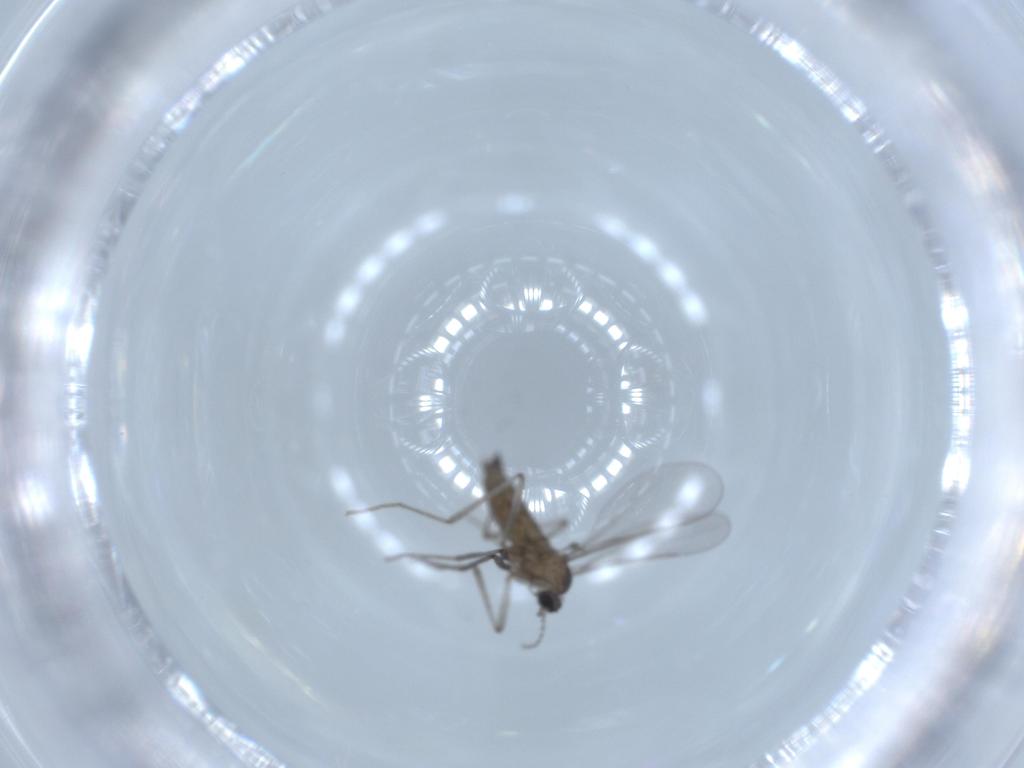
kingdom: Animalia
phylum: Arthropoda
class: Insecta
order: Diptera
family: Cecidomyiidae
